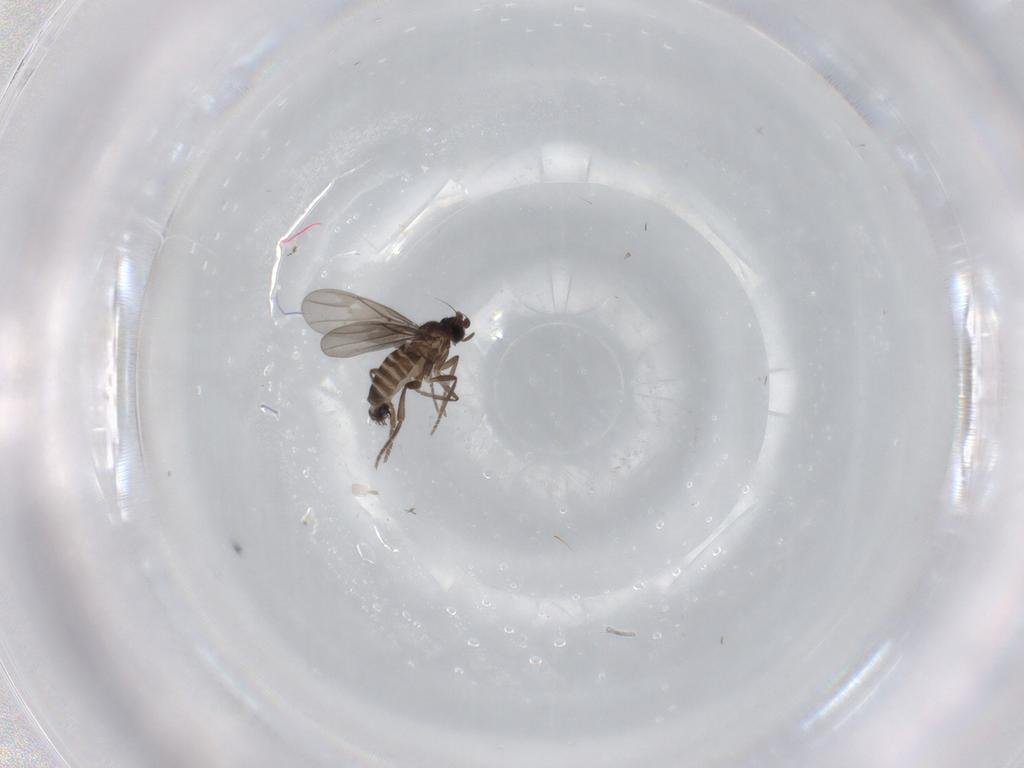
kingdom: Animalia
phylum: Arthropoda
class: Insecta
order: Diptera
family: Phoridae
